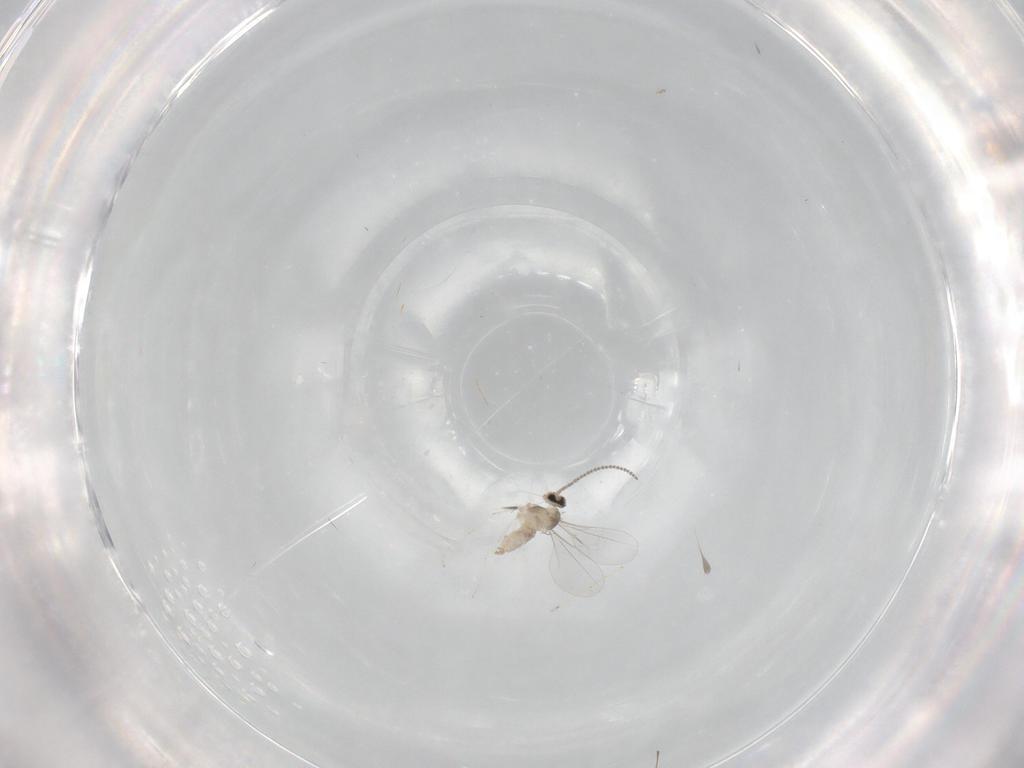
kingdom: Animalia
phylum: Arthropoda
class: Insecta
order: Diptera
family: Cecidomyiidae
